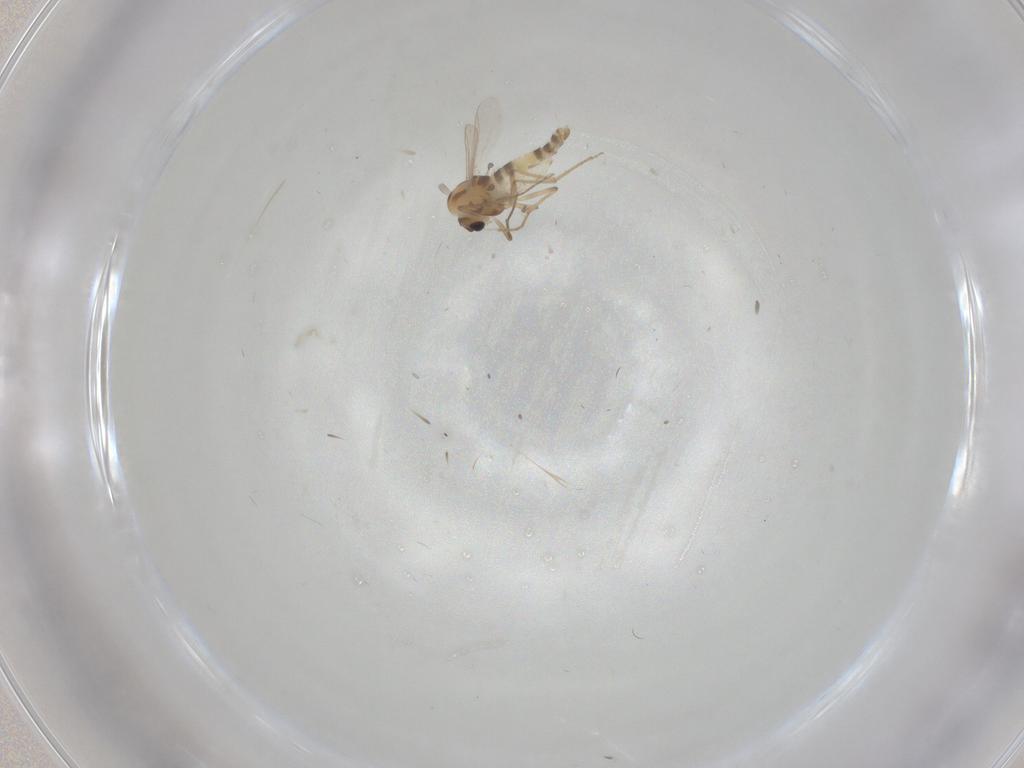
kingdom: Animalia
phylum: Arthropoda
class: Insecta
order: Diptera
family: Chironomidae
